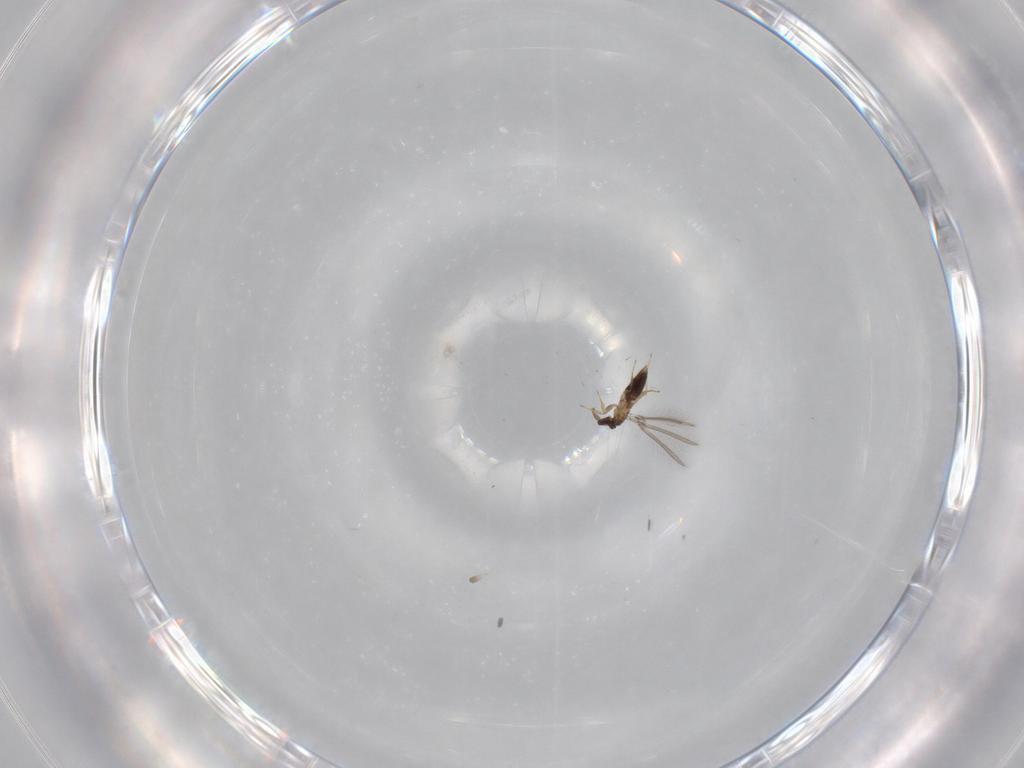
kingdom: Animalia
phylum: Arthropoda
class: Insecta
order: Hymenoptera
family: Mymaridae
